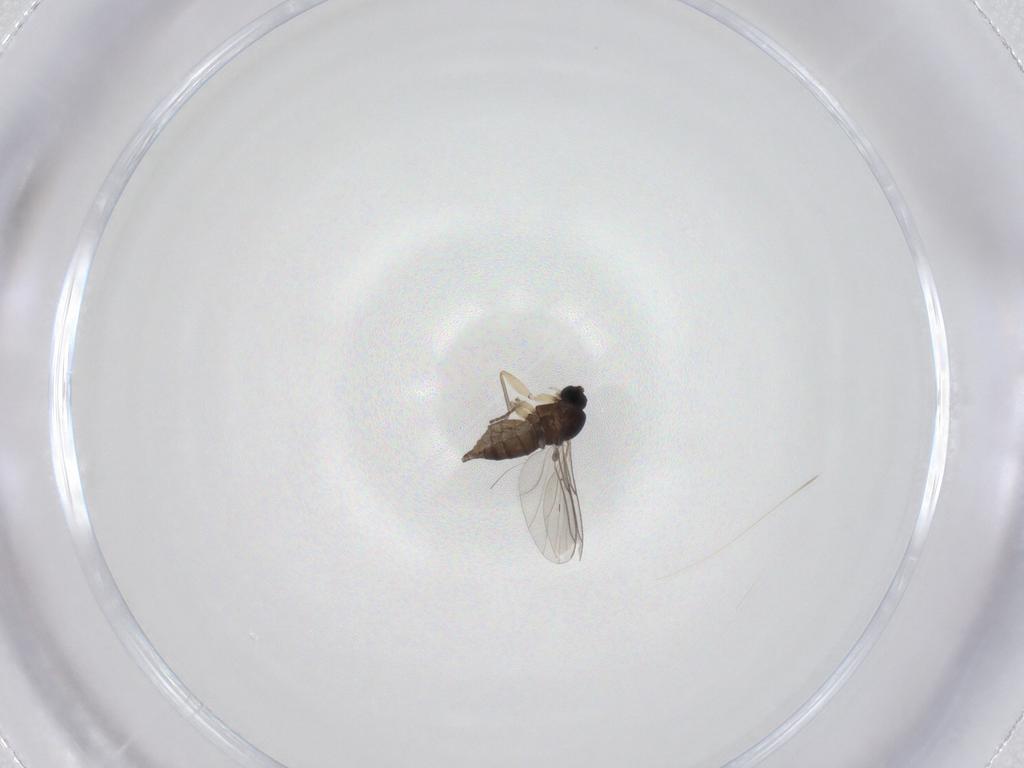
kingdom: Animalia
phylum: Arthropoda
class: Insecta
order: Diptera
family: Sciaridae
